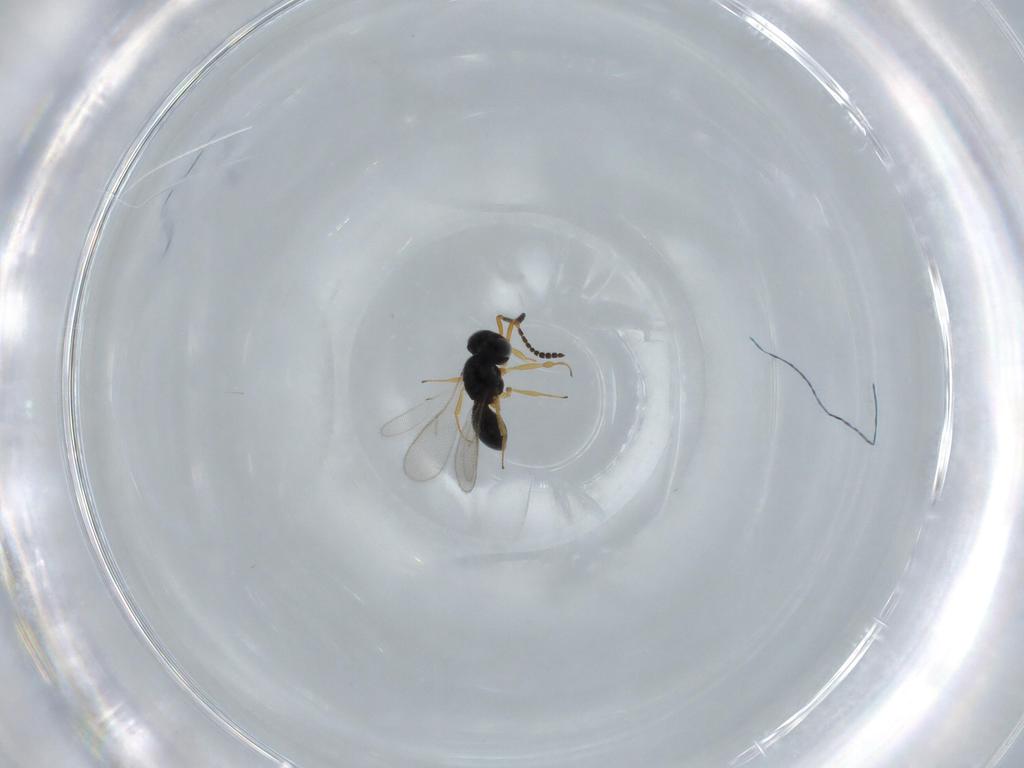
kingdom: Animalia
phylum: Arthropoda
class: Insecta
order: Hymenoptera
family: Scelionidae
